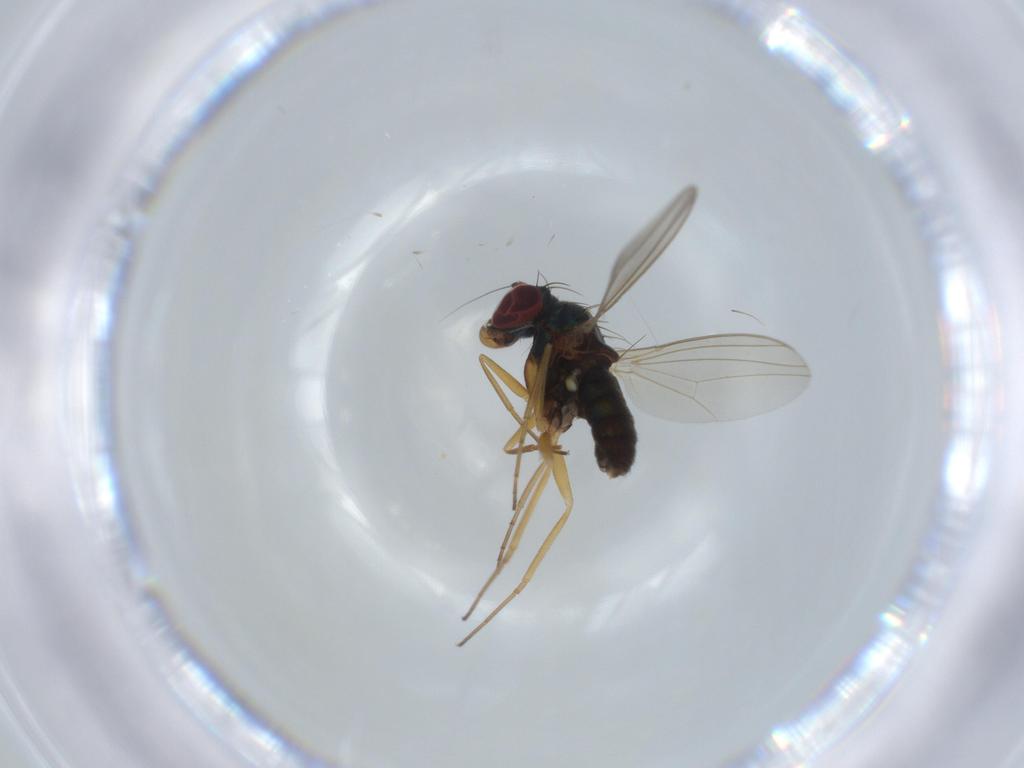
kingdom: Animalia
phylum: Arthropoda
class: Insecta
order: Diptera
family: Dolichopodidae
